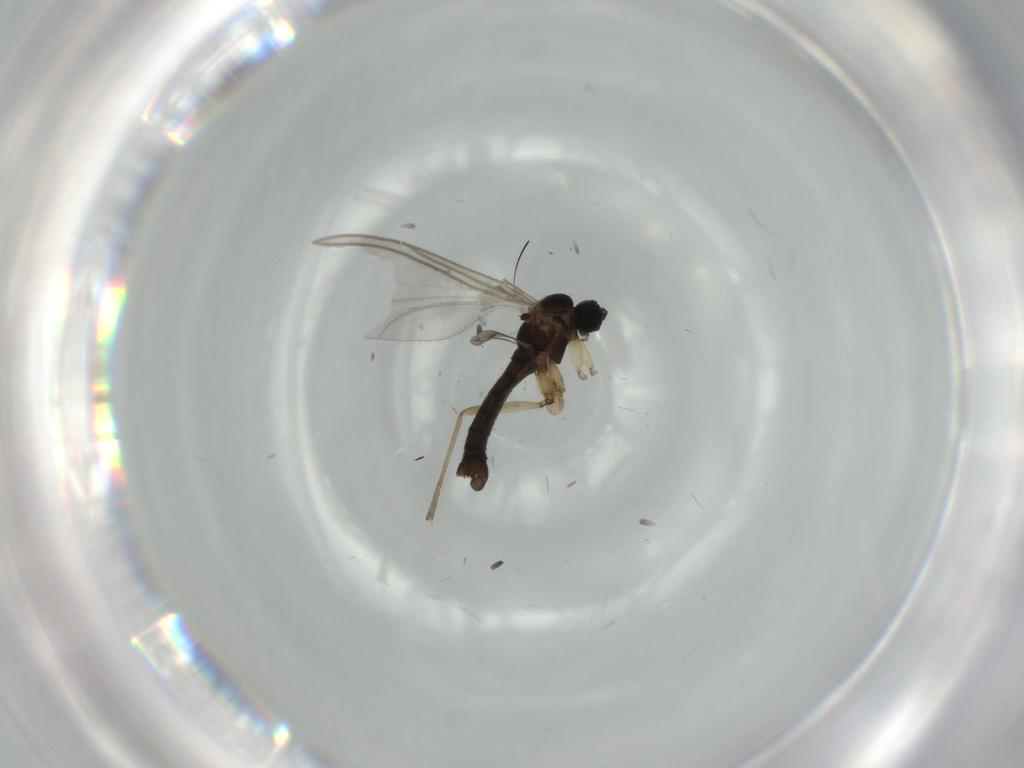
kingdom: Animalia
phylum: Arthropoda
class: Insecta
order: Diptera
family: Sciaridae
